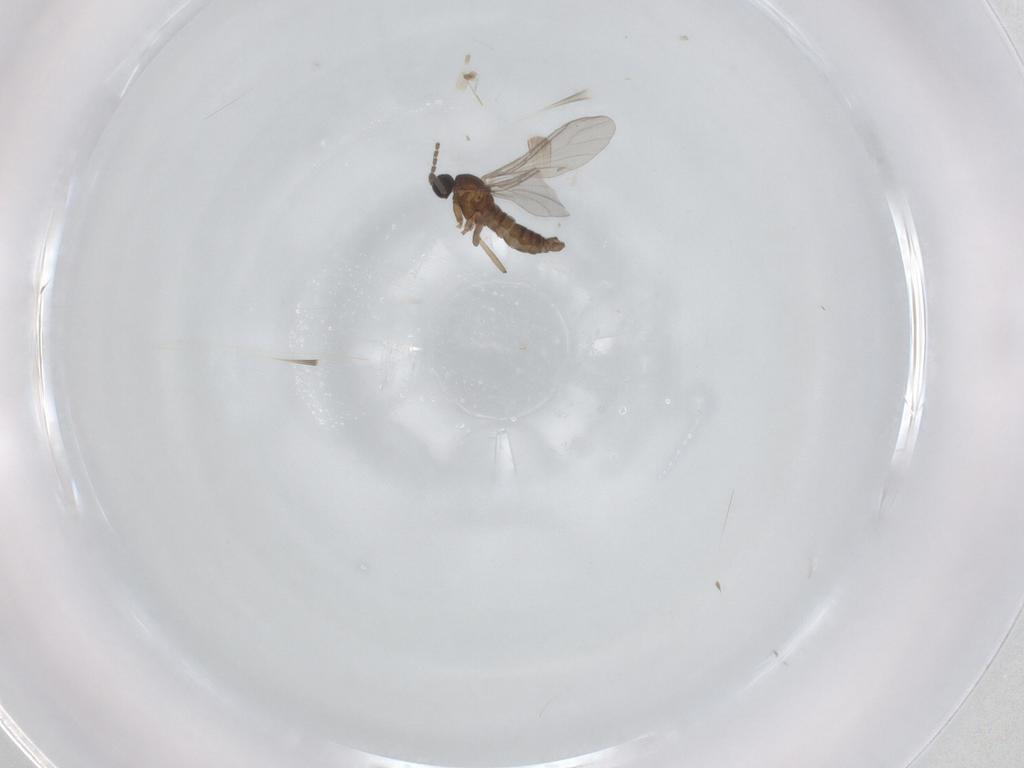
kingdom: Animalia
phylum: Arthropoda
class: Insecta
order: Diptera
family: Sciaridae
